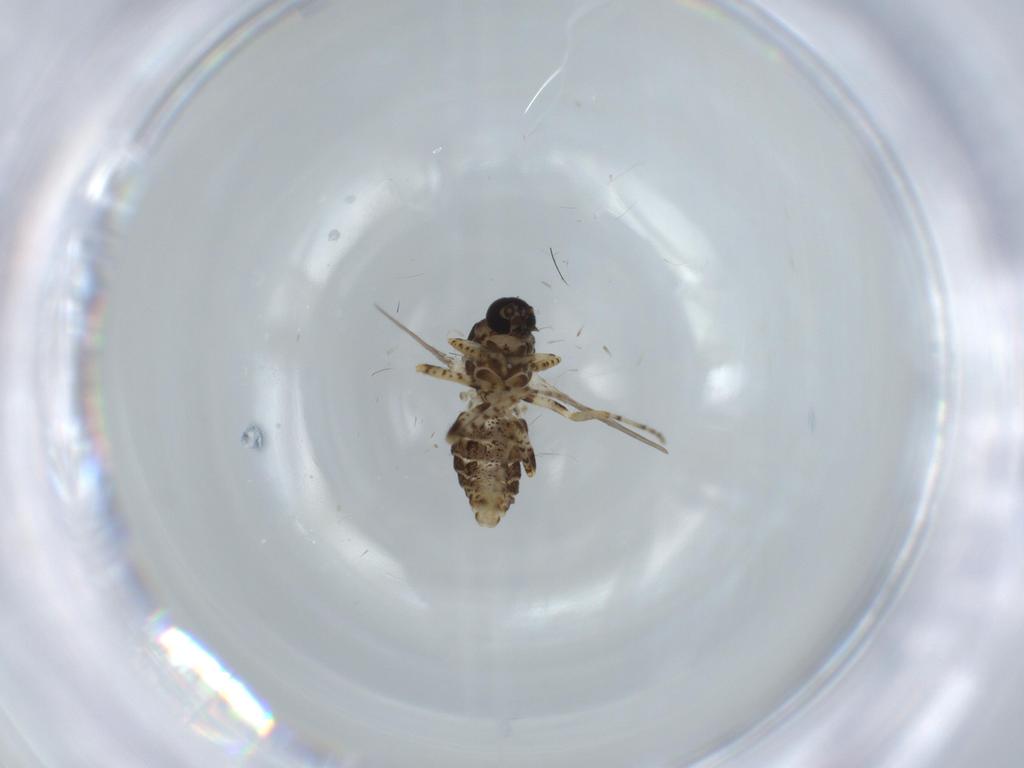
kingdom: Animalia
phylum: Arthropoda
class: Insecta
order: Diptera
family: Ceratopogonidae
